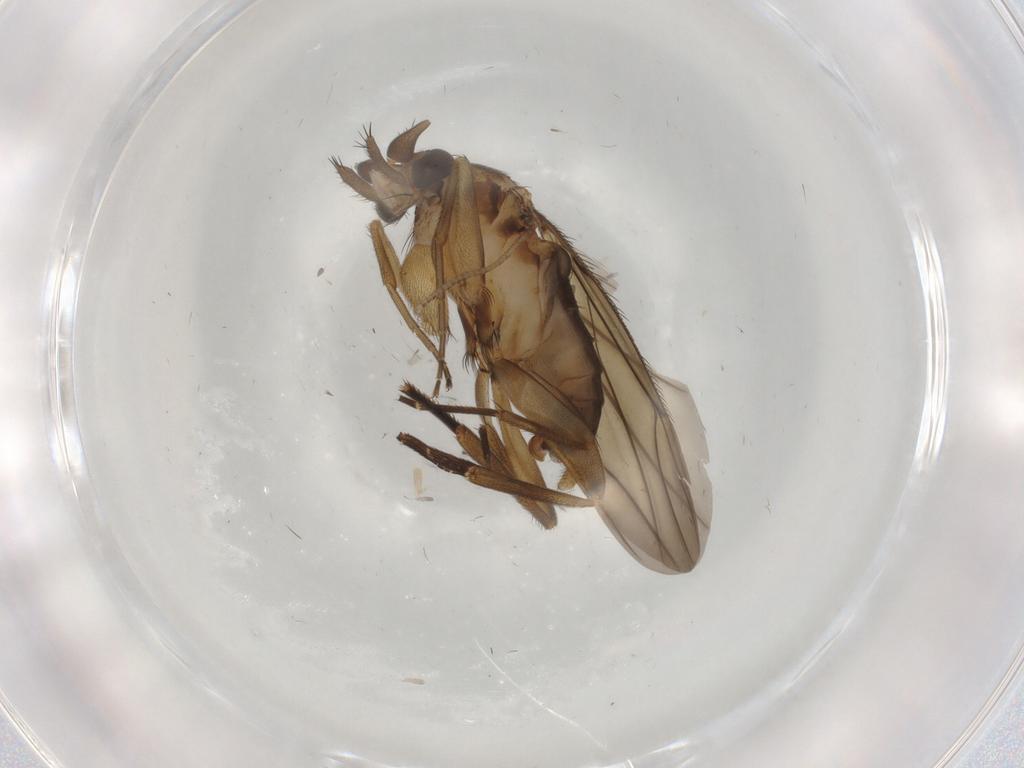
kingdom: Animalia
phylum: Arthropoda
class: Insecta
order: Diptera
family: Phoridae
